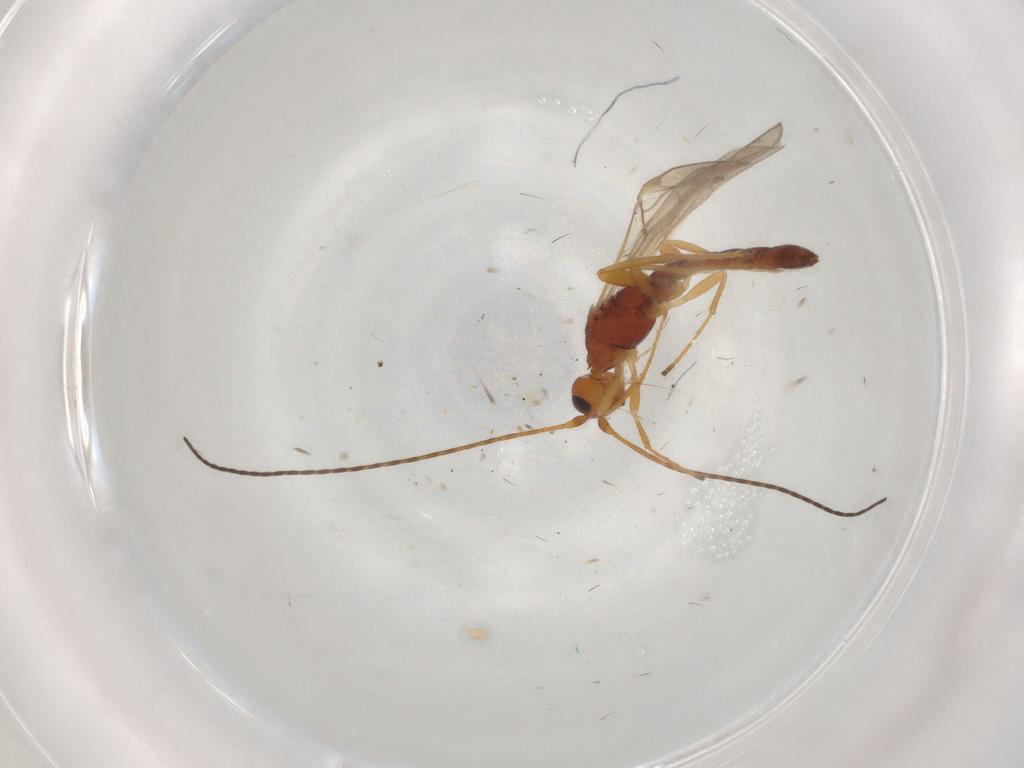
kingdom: Animalia
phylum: Arthropoda
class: Insecta
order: Hymenoptera
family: Braconidae
